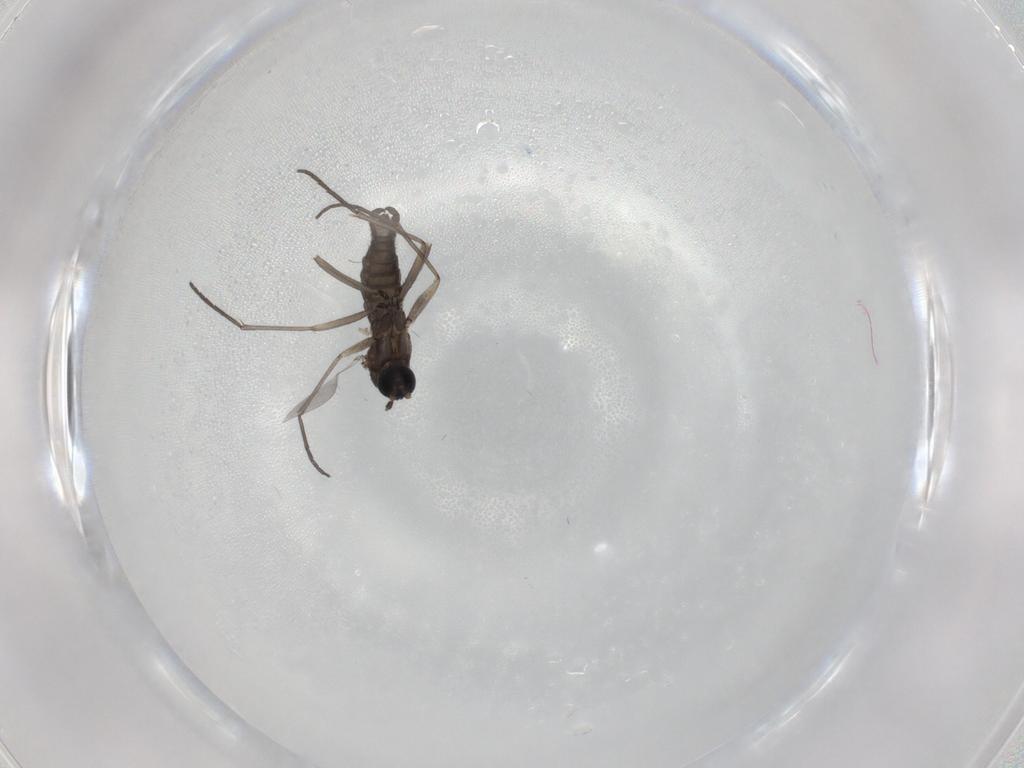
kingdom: Animalia
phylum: Arthropoda
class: Insecta
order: Diptera
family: Sciaridae
